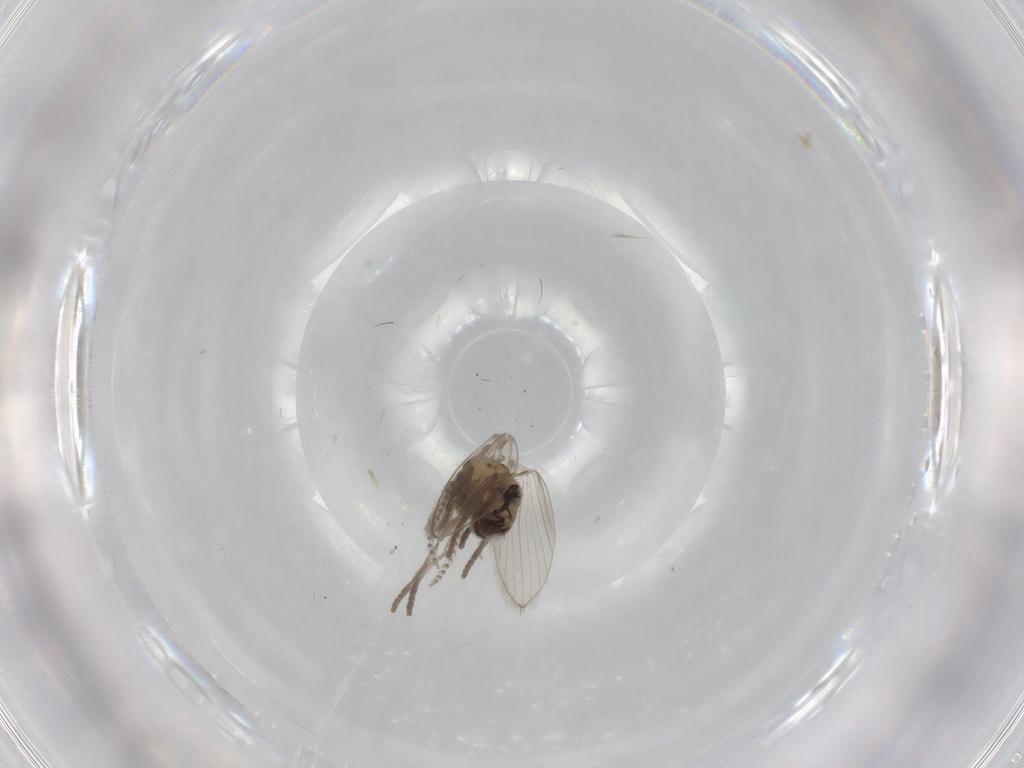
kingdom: Animalia
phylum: Arthropoda
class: Insecta
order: Diptera
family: Psychodidae
